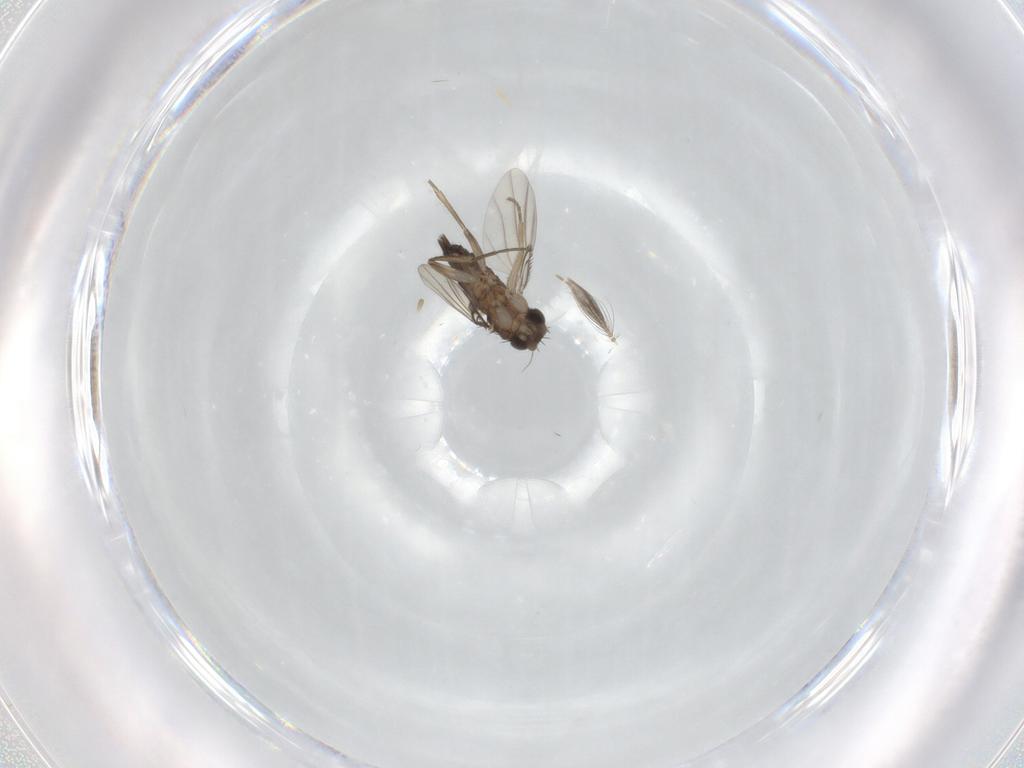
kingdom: Animalia
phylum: Arthropoda
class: Insecta
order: Diptera
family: Phoridae
